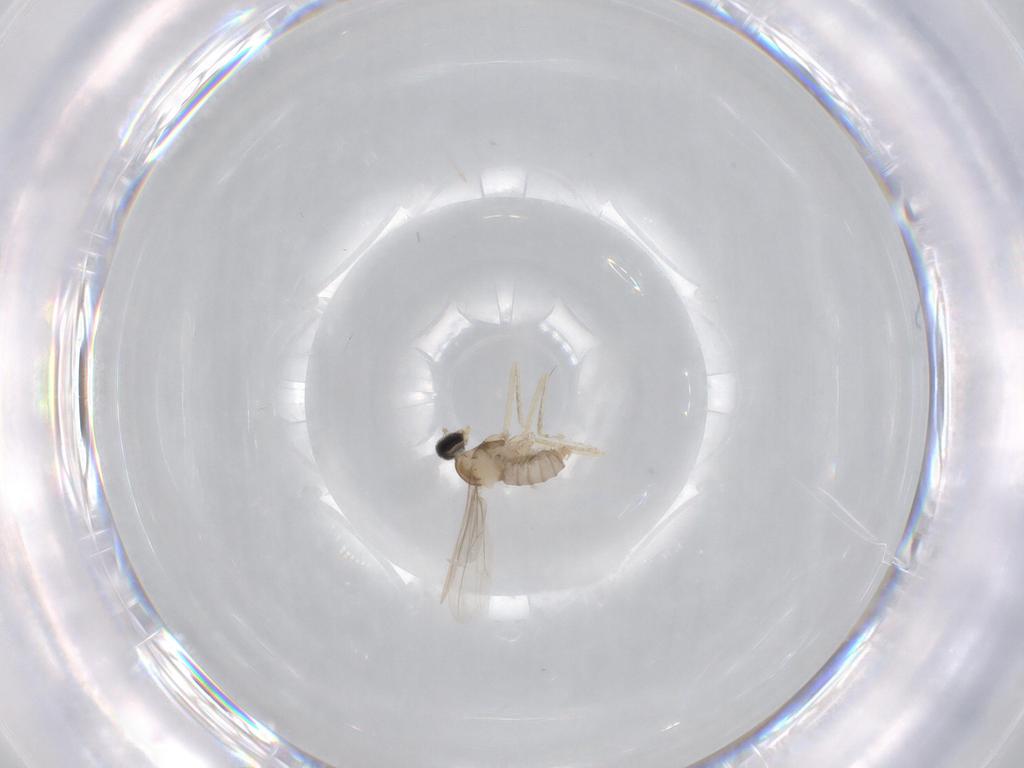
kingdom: Animalia
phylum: Arthropoda
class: Insecta
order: Diptera
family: Cecidomyiidae
